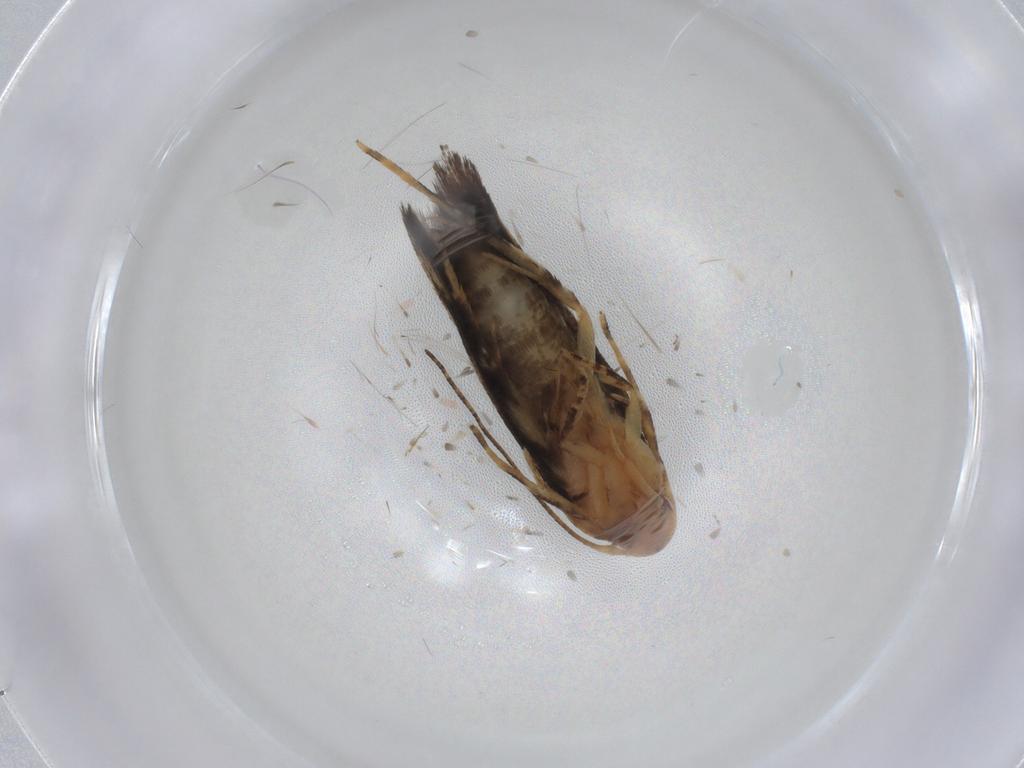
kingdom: Animalia
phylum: Arthropoda
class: Insecta
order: Lepidoptera
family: Momphidae
